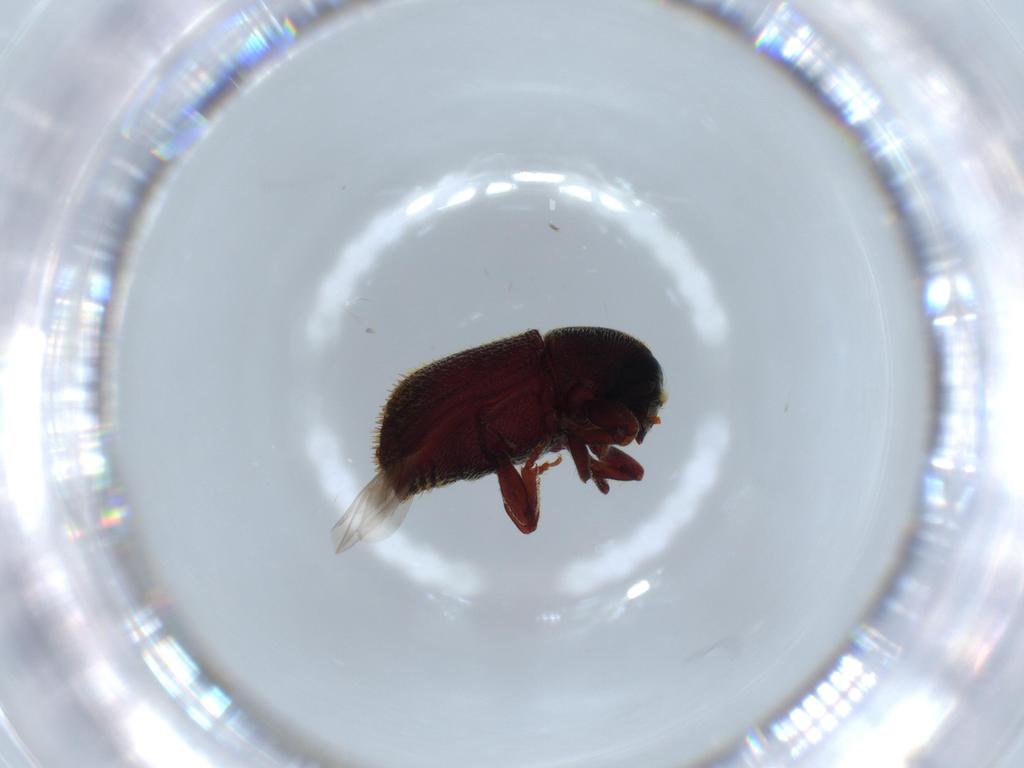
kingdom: Animalia
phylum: Arthropoda
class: Insecta
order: Coleoptera
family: Brentidae
